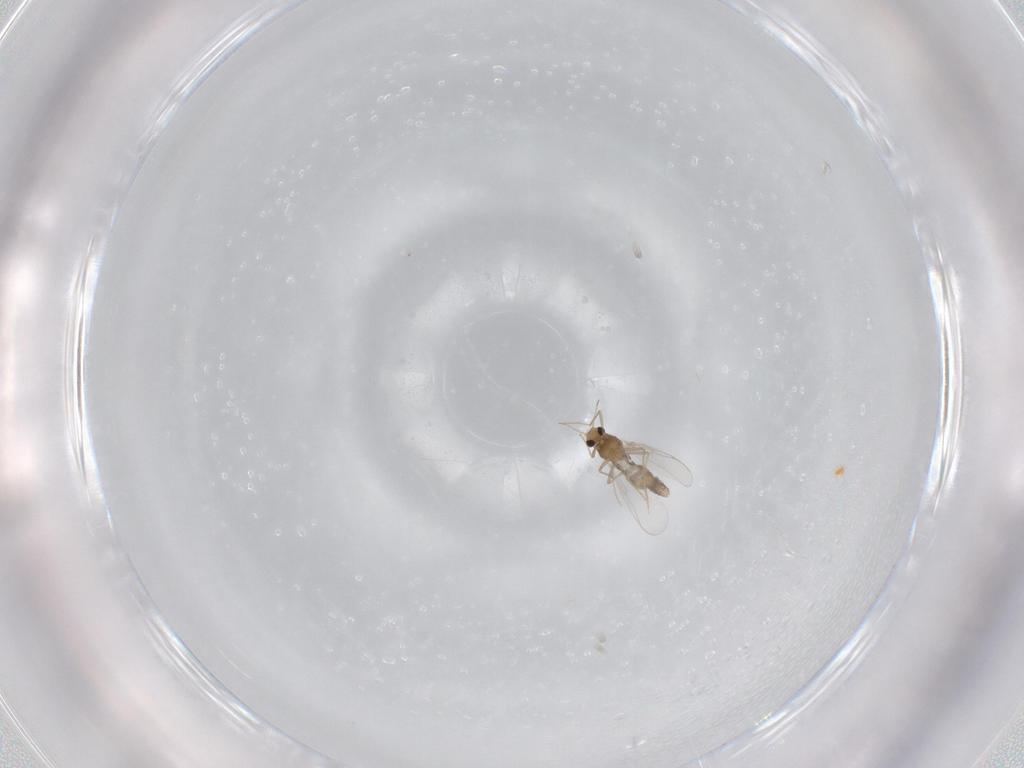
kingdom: Animalia
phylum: Arthropoda
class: Insecta
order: Diptera
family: Chironomidae
